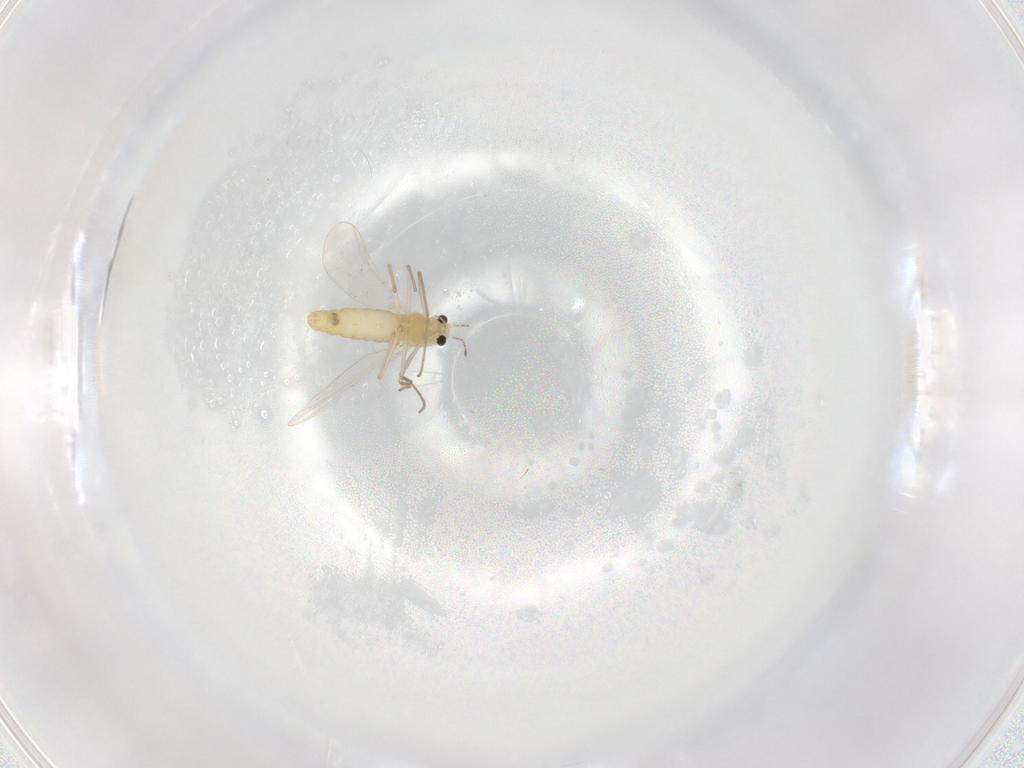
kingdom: Animalia
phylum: Arthropoda
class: Insecta
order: Diptera
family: Chironomidae
